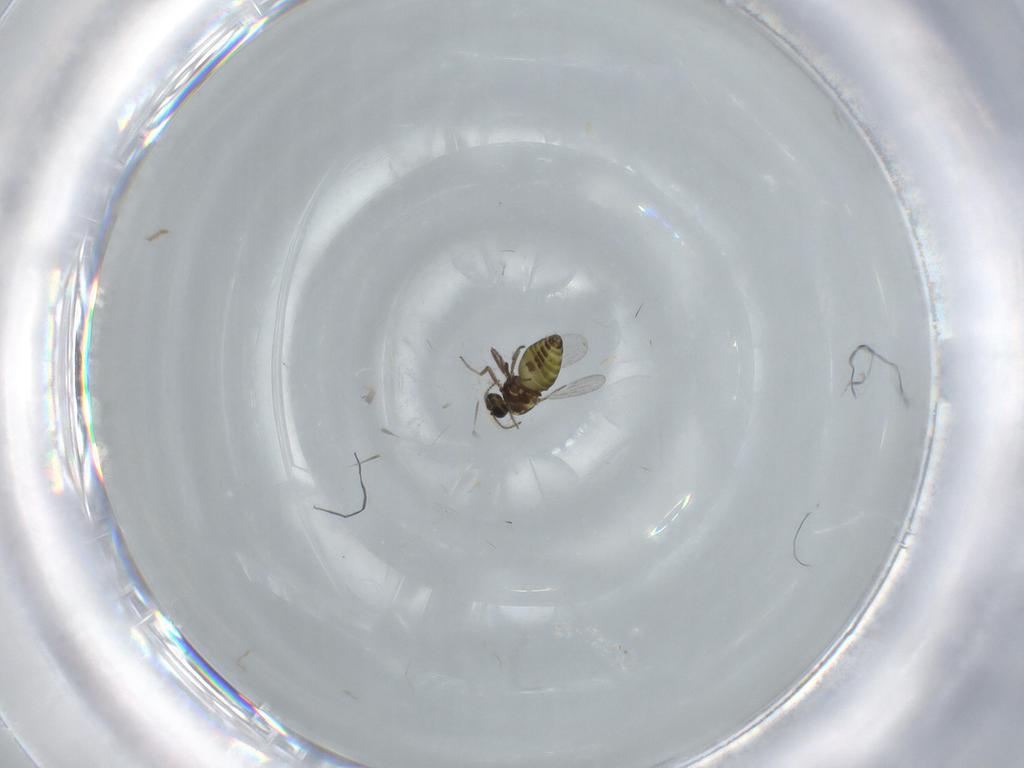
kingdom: Animalia
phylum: Arthropoda
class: Insecta
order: Diptera
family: Ceratopogonidae
